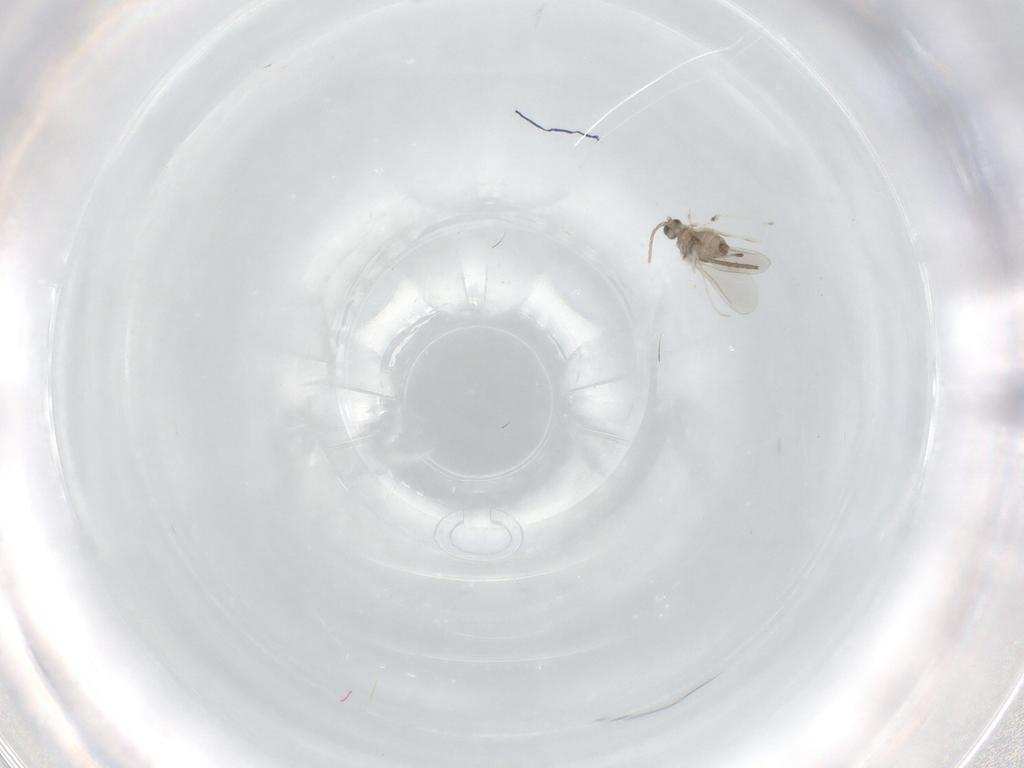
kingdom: Animalia
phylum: Arthropoda
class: Insecta
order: Diptera
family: Cecidomyiidae
